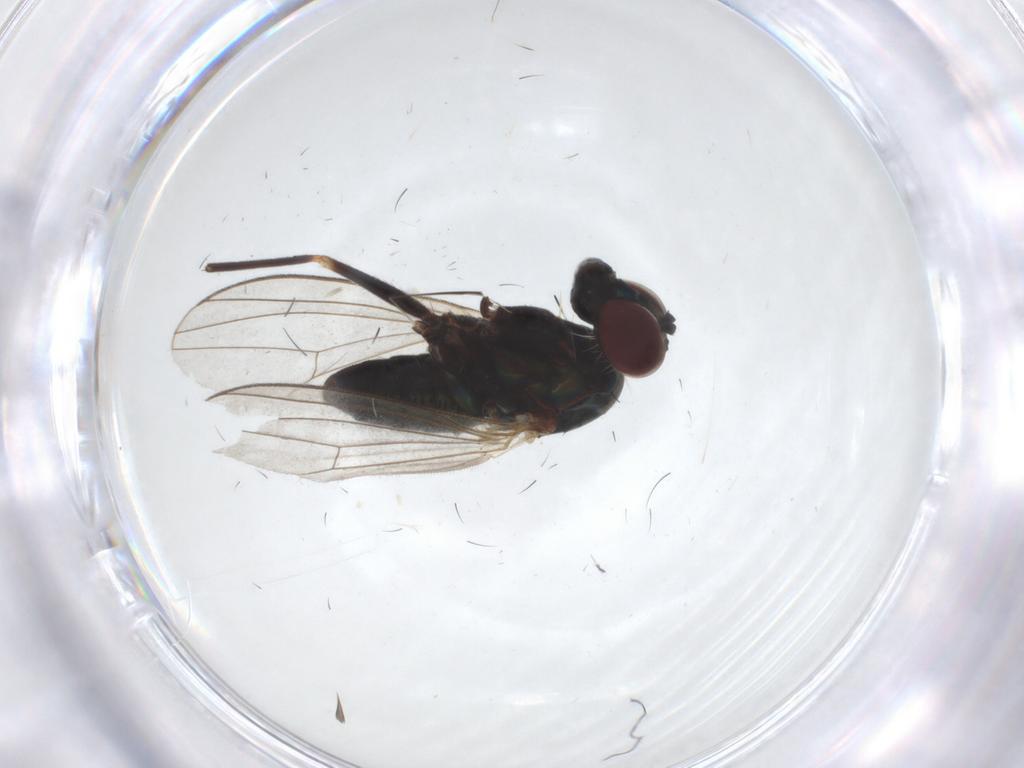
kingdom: Animalia
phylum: Arthropoda
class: Insecta
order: Diptera
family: Dolichopodidae
